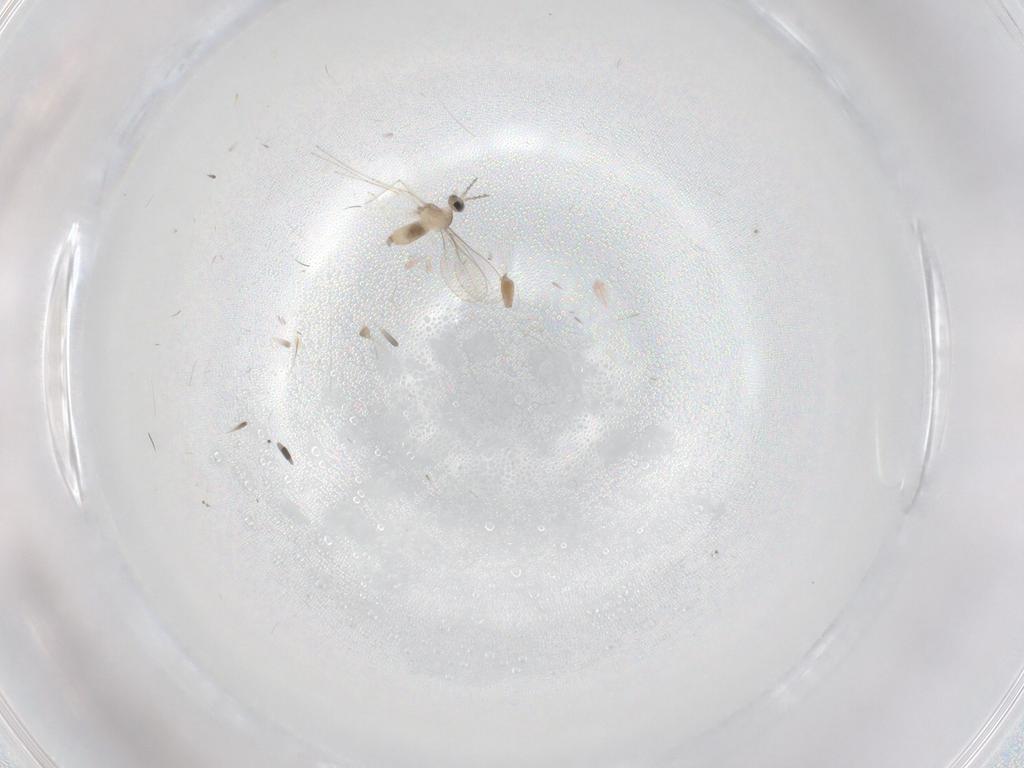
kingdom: Animalia
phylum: Arthropoda
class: Insecta
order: Diptera
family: Cecidomyiidae
